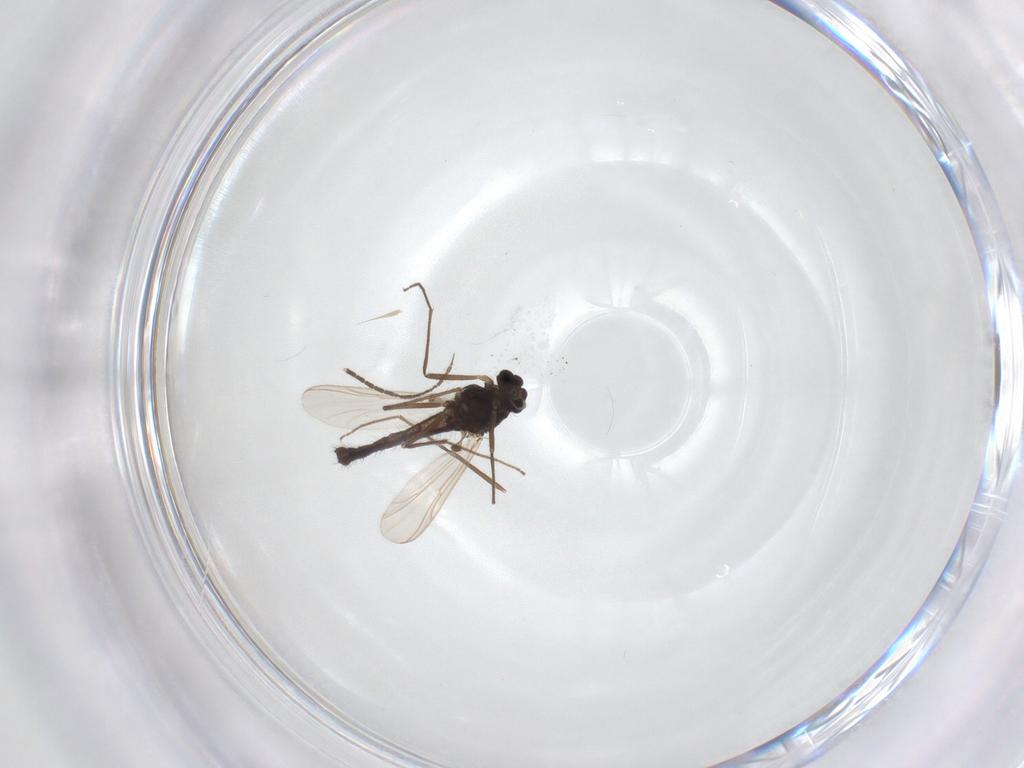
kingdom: Animalia
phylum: Arthropoda
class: Insecta
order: Diptera
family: Chironomidae
